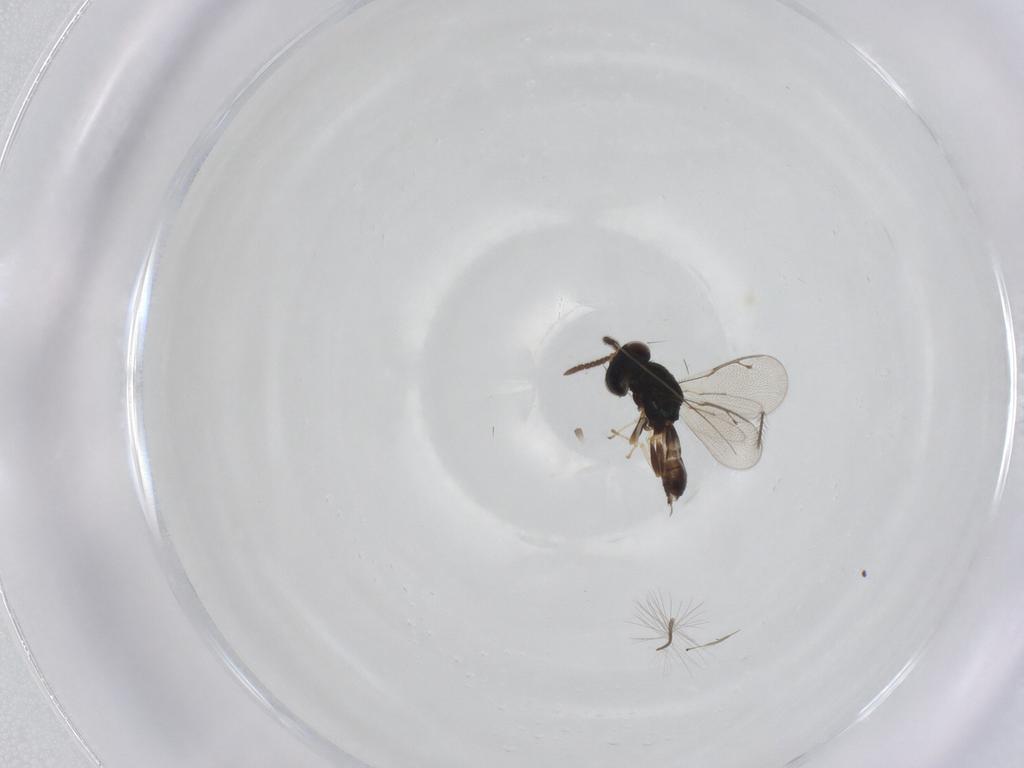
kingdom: Animalia
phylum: Arthropoda
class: Insecta
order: Hymenoptera
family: Pteromalidae
